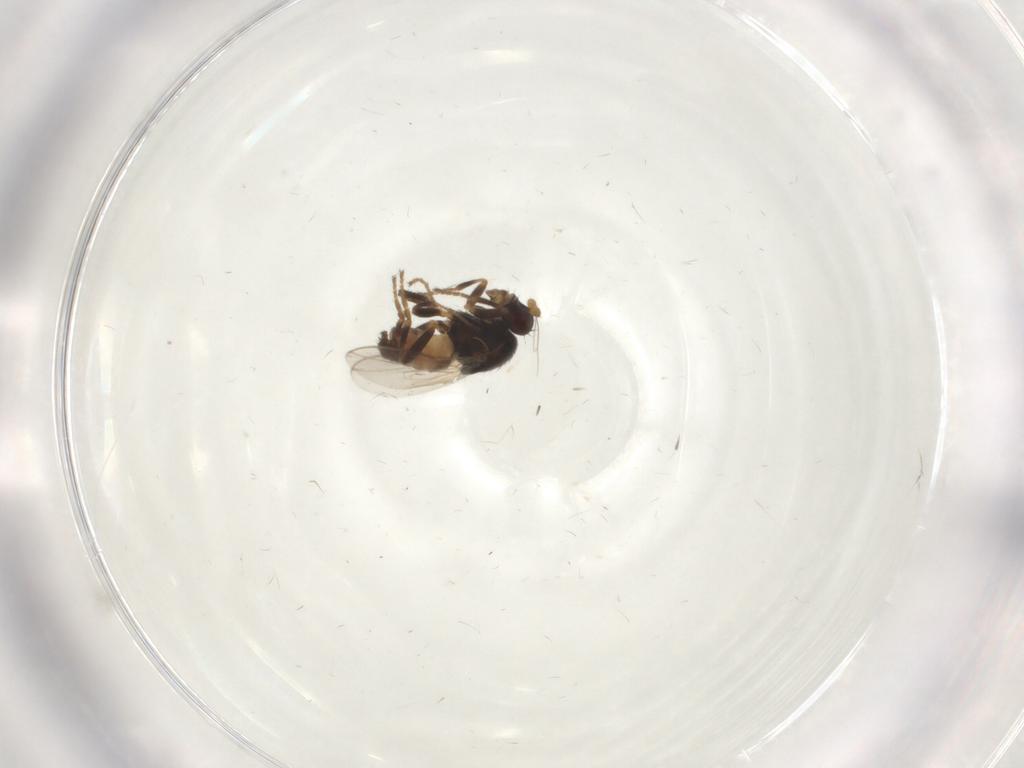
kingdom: Animalia
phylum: Arthropoda
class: Insecta
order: Diptera
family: Sphaeroceridae
